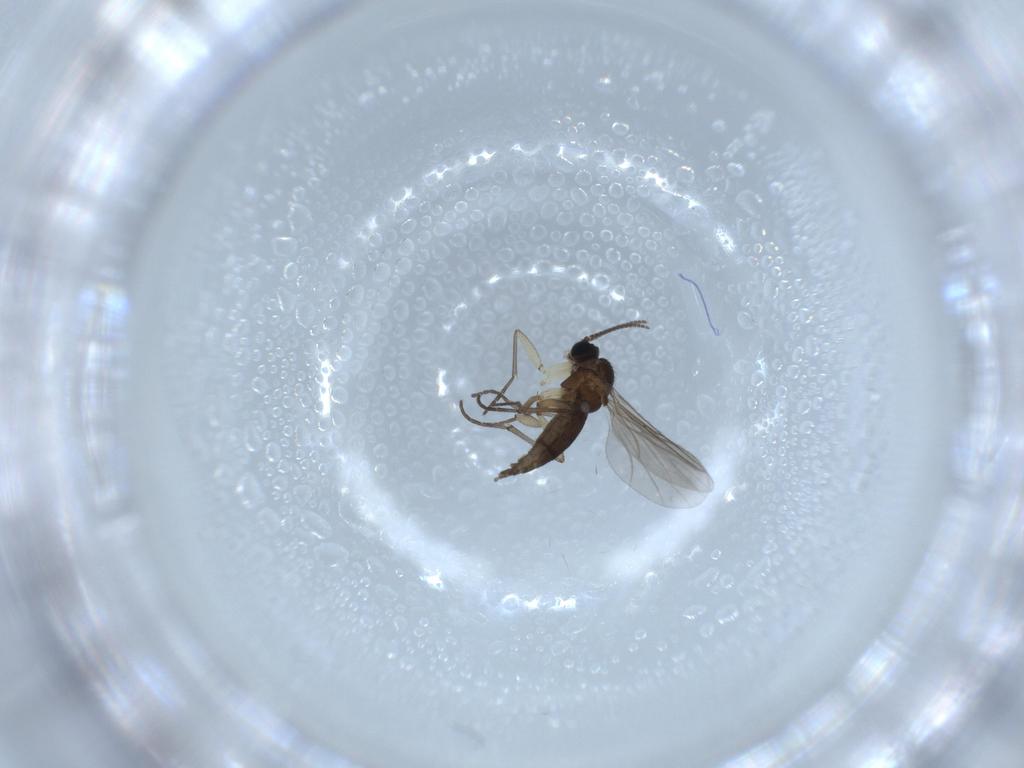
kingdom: Animalia
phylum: Arthropoda
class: Insecta
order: Diptera
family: Sciaridae
